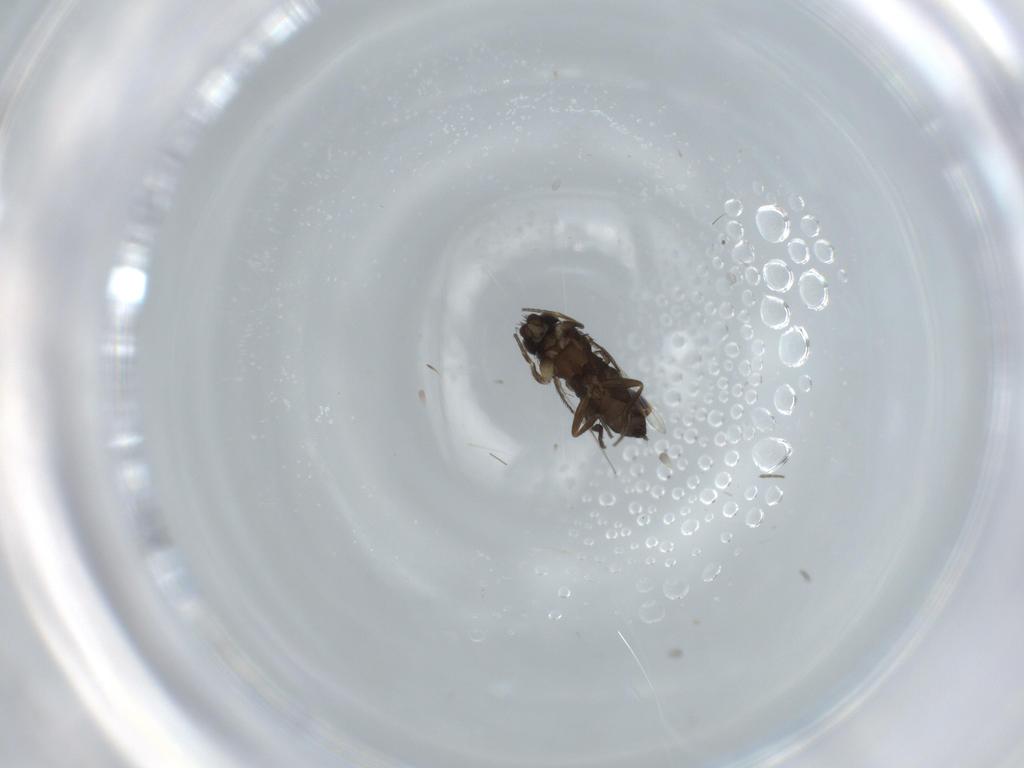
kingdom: Animalia
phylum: Arthropoda
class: Insecta
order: Diptera
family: Phoridae
